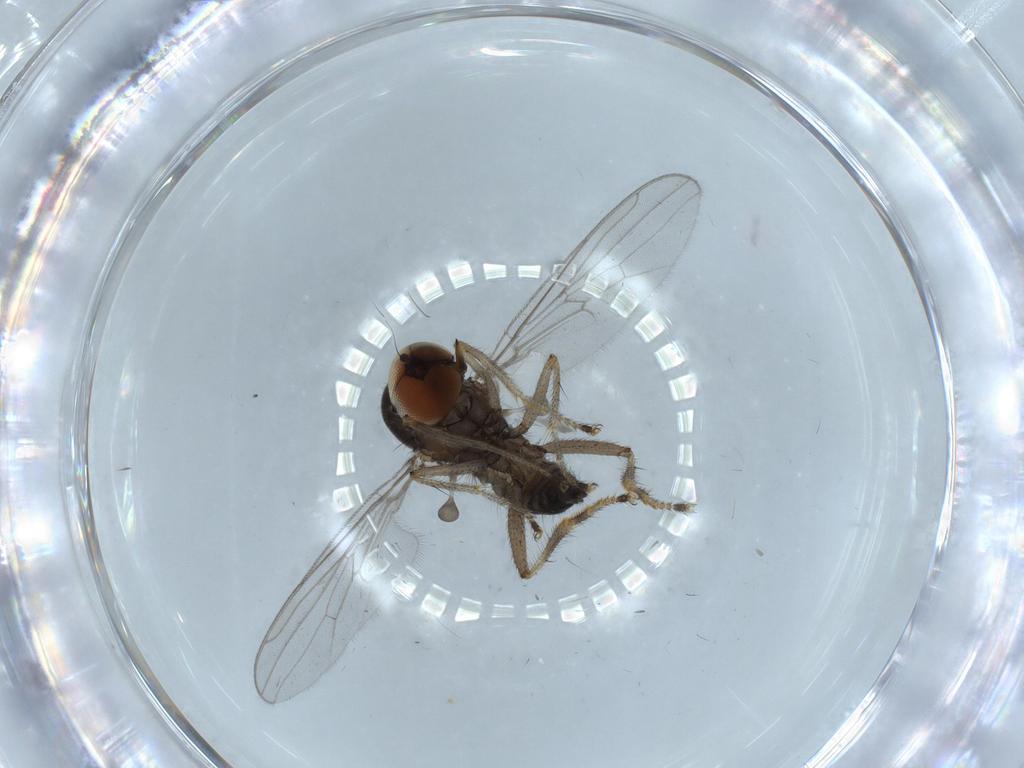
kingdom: Animalia
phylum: Arthropoda
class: Insecta
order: Diptera
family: Hybotidae
